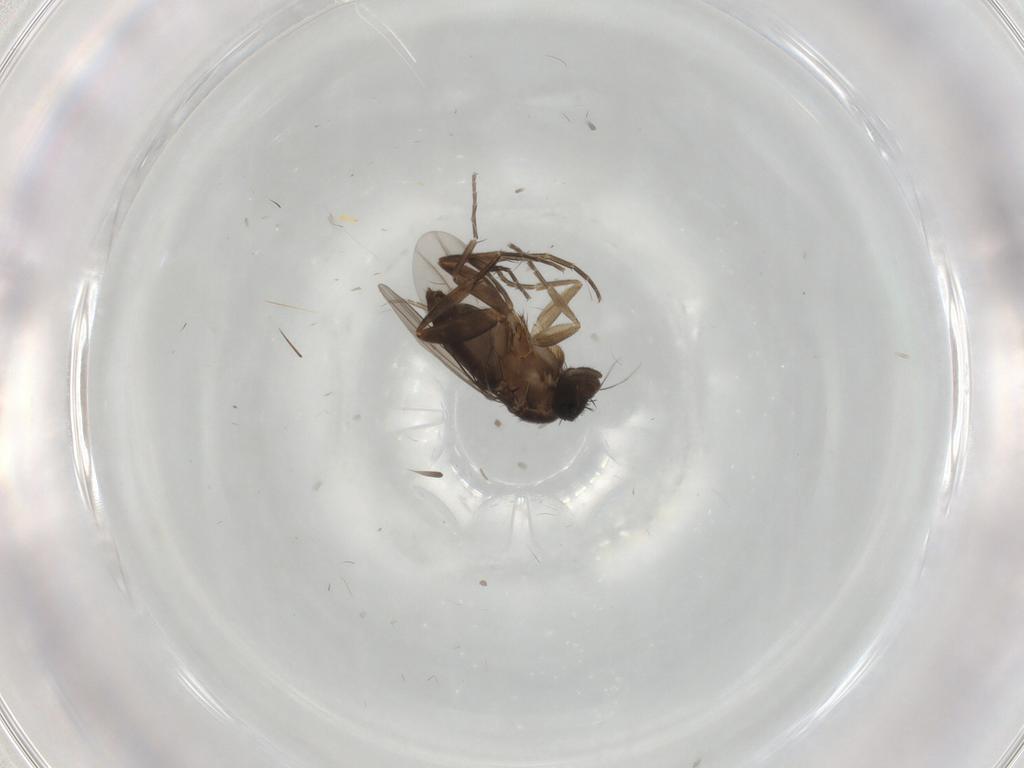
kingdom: Animalia
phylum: Arthropoda
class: Insecta
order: Diptera
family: Phoridae
